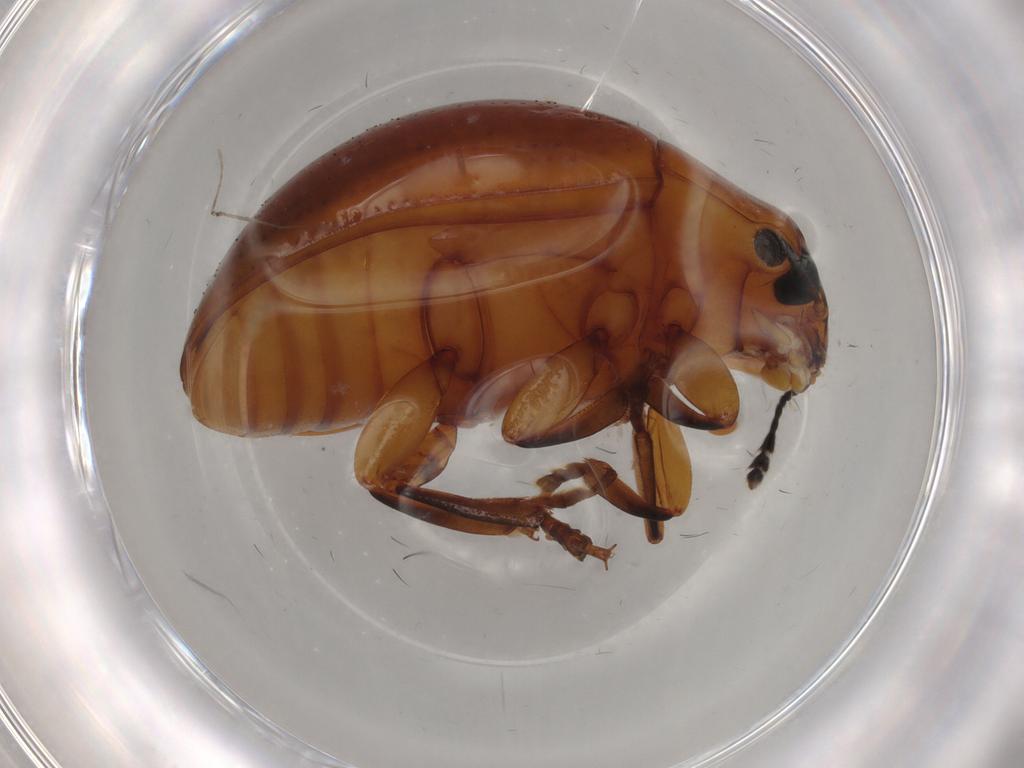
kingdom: Animalia
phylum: Arthropoda
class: Insecta
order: Coleoptera
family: Erotylidae
